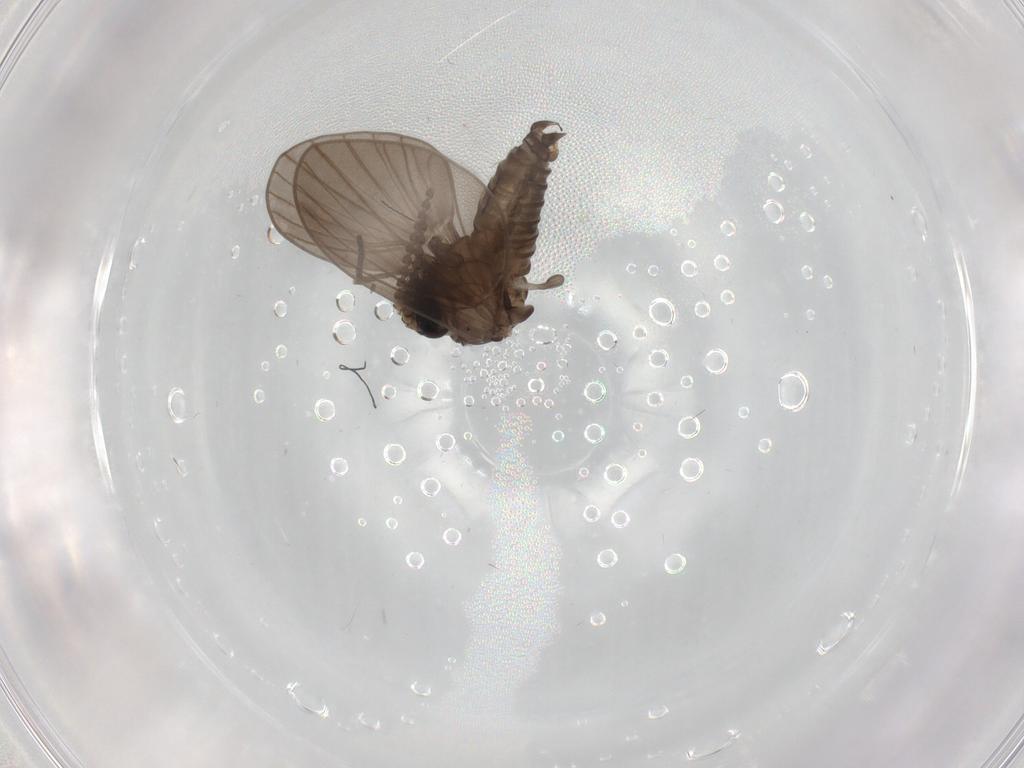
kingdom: Animalia
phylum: Arthropoda
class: Insecta
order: Diptera
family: Psychodidae
